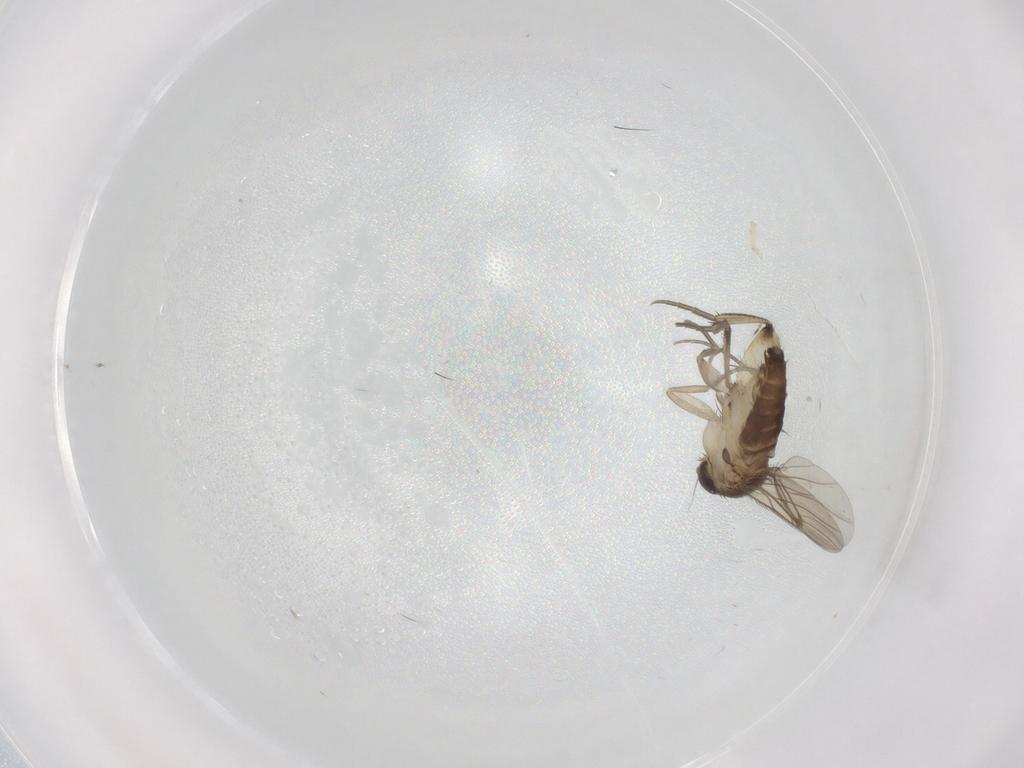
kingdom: Animalia
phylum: Arthropoda
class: Insecta
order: Diptera
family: Phoridae
